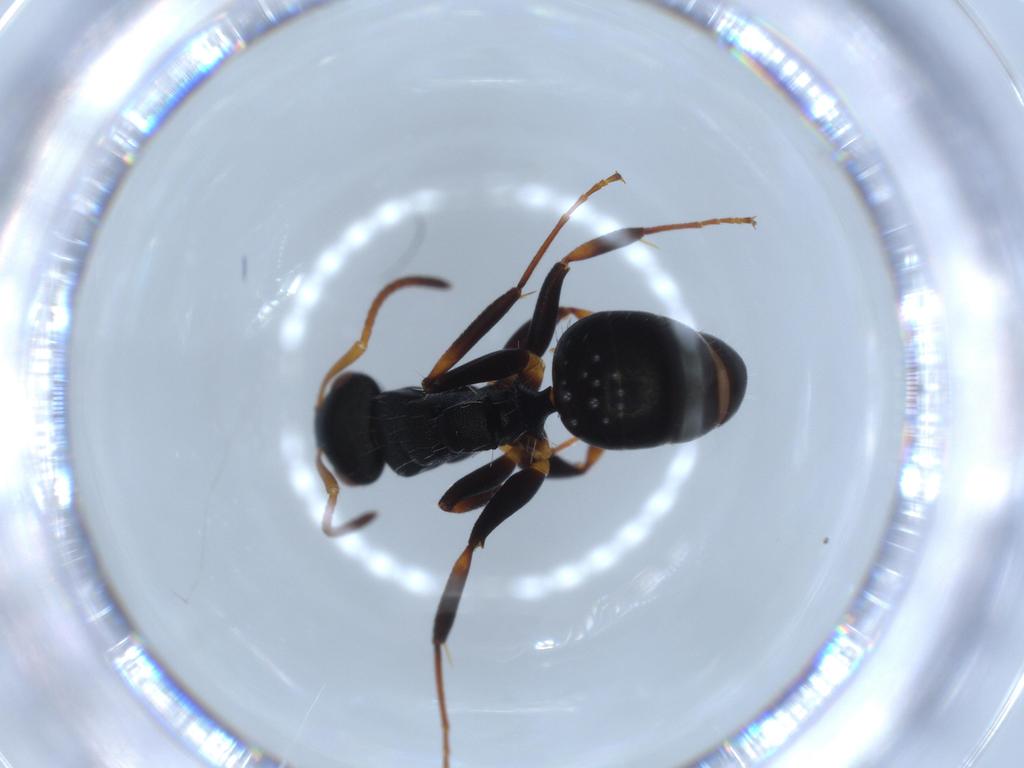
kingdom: Animalia
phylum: Arthropoda
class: Insecta
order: Hymenoptera
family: Formicidae
